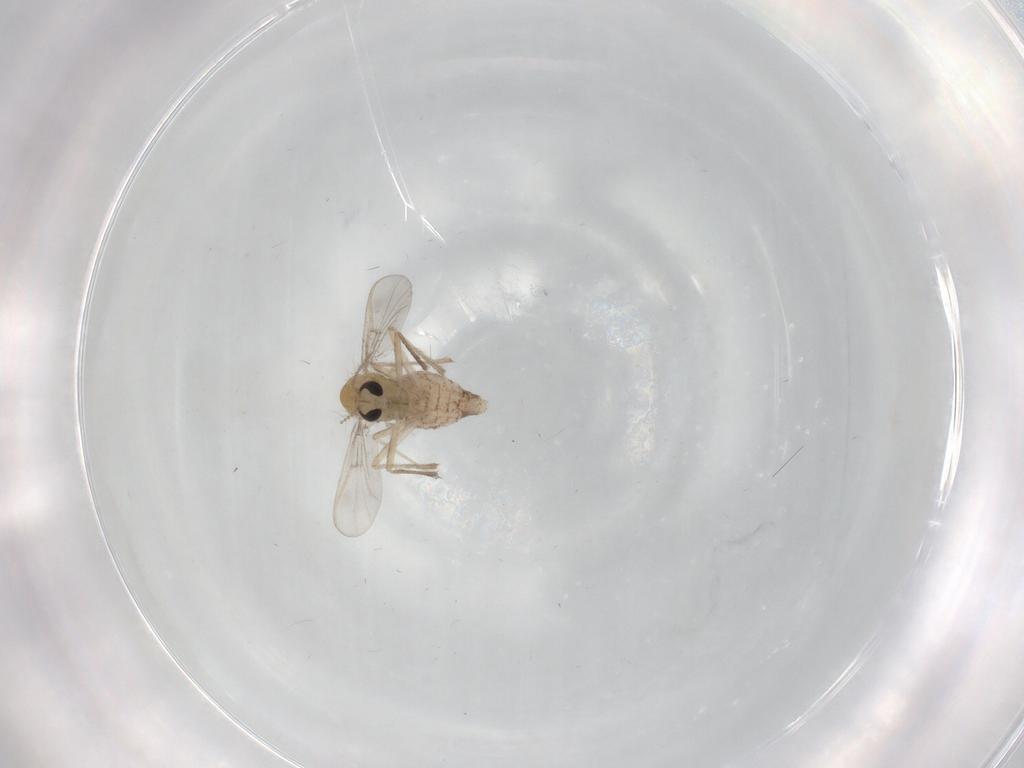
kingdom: Animalia
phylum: Arthropoda
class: Insecta
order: Diptera
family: Chironomidae
